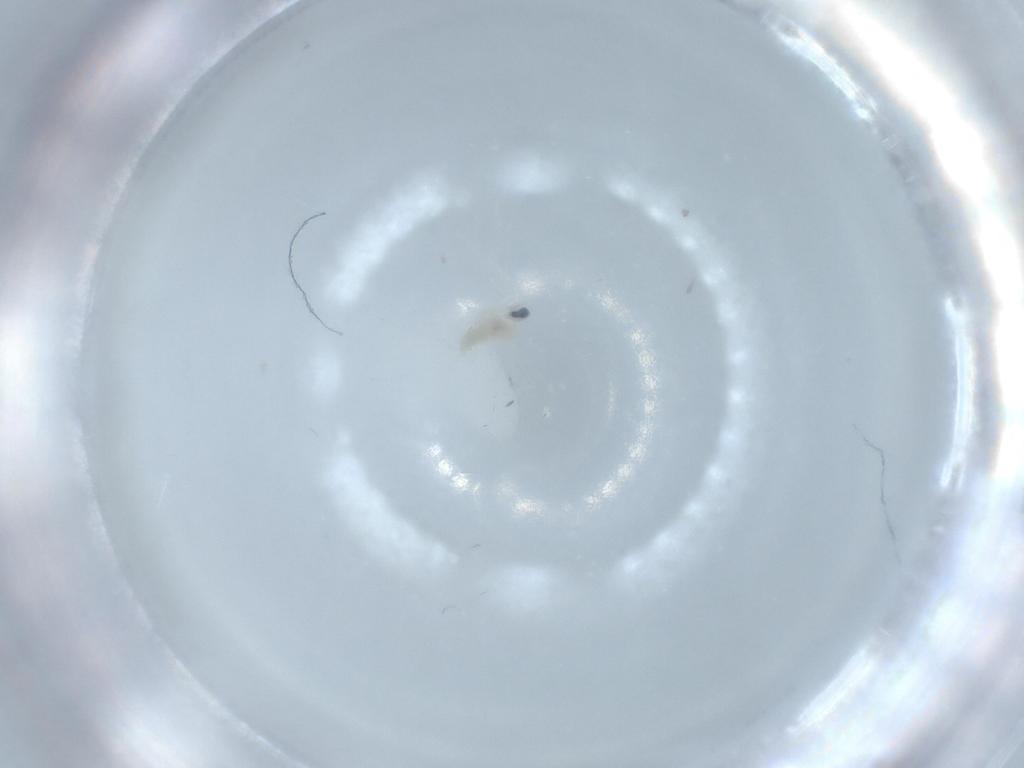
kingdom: Animalia
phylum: Arthropoda
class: Insecta
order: Diptera
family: Cecidomyiidae
